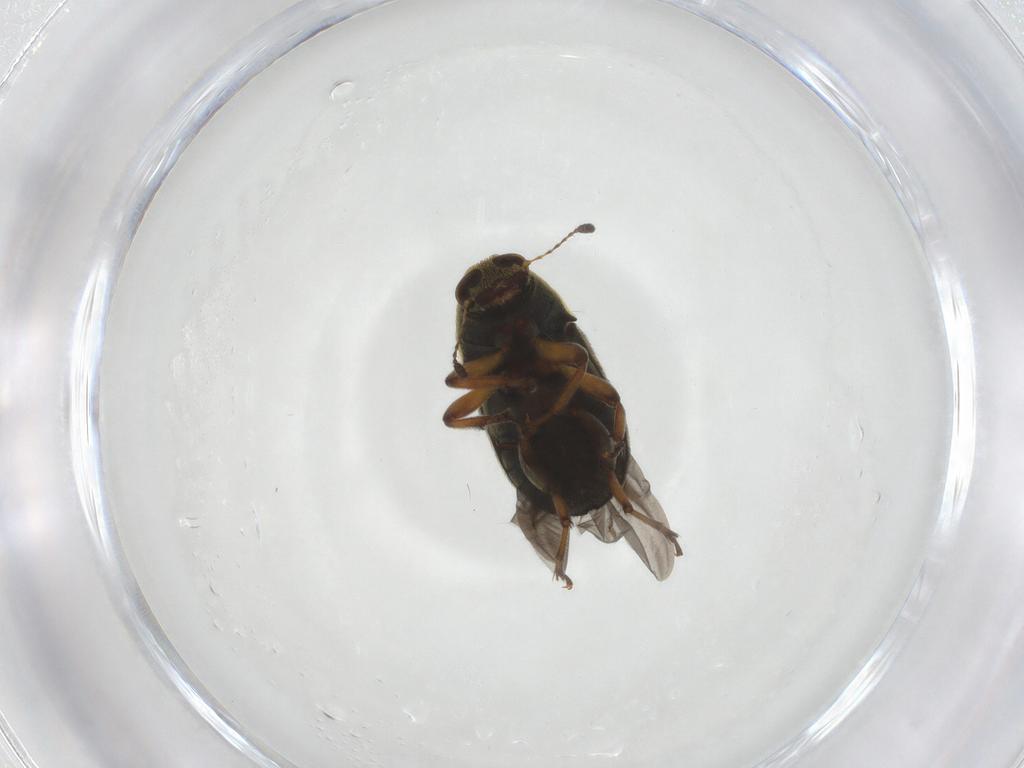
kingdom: Animalia
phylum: Arthropoda
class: Insecta
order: Coleoptera
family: Anthribidae
